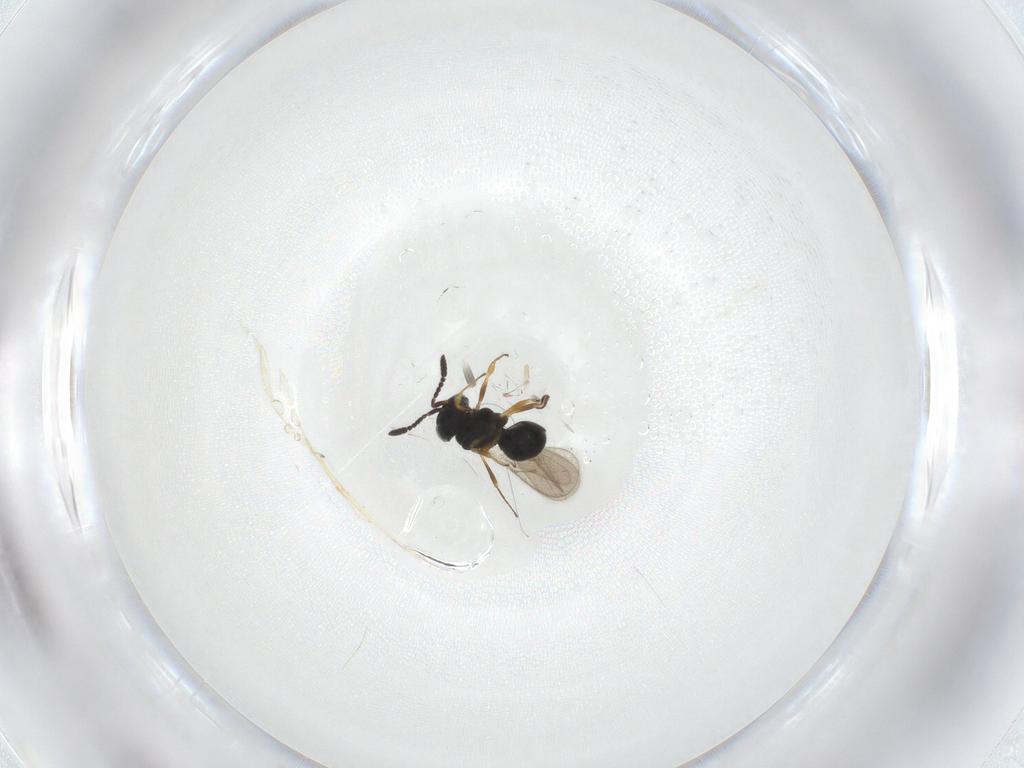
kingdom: Animalia
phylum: Arthropoda
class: Insecta
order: Hymenoptera
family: Scelionidae
